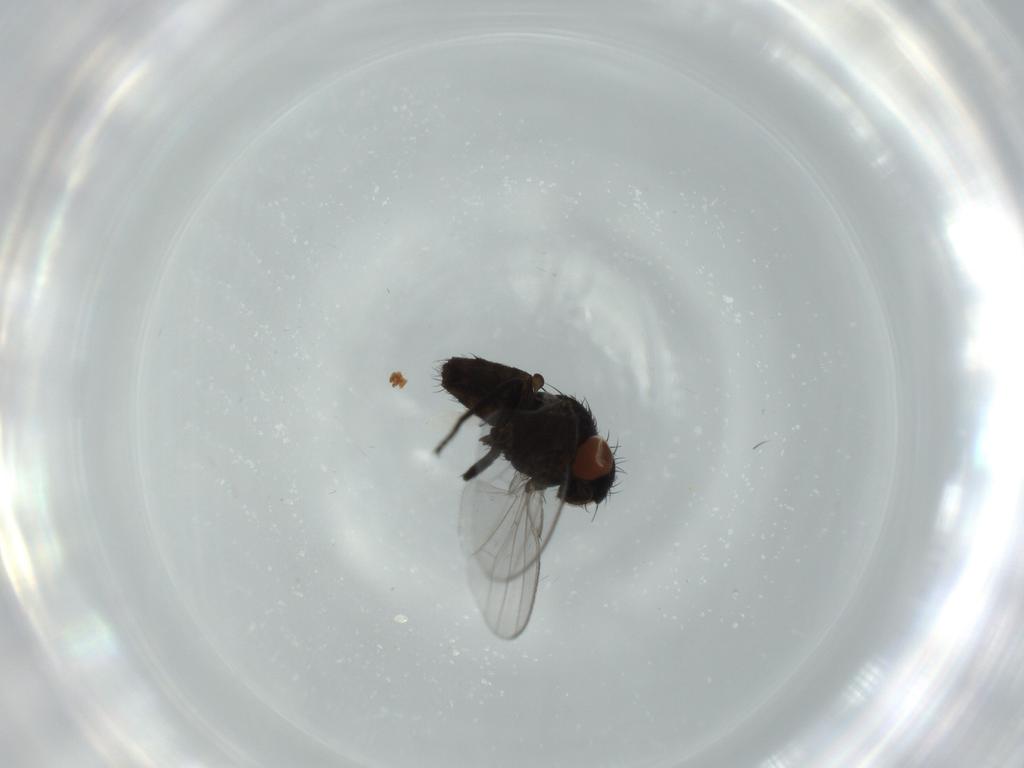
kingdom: Animalia
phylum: Arthropoda
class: Insecta
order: Diptera
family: Milichiidae
